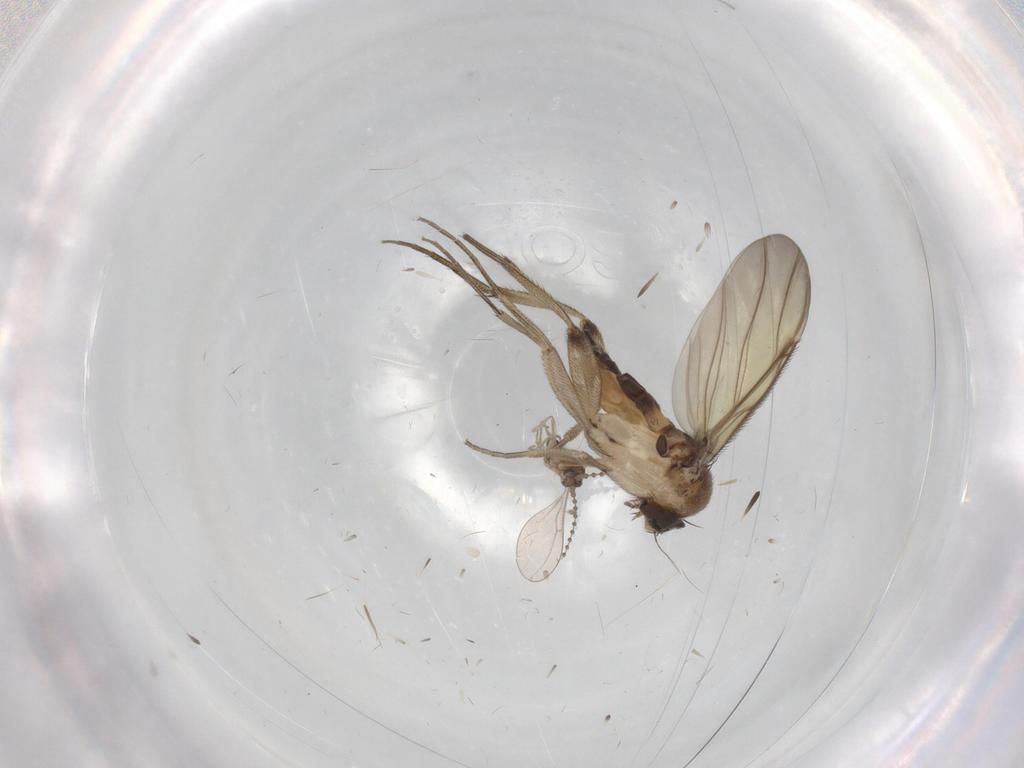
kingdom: Animalia
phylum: Arthropoda
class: Insecta
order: Diptera
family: Phoridae
